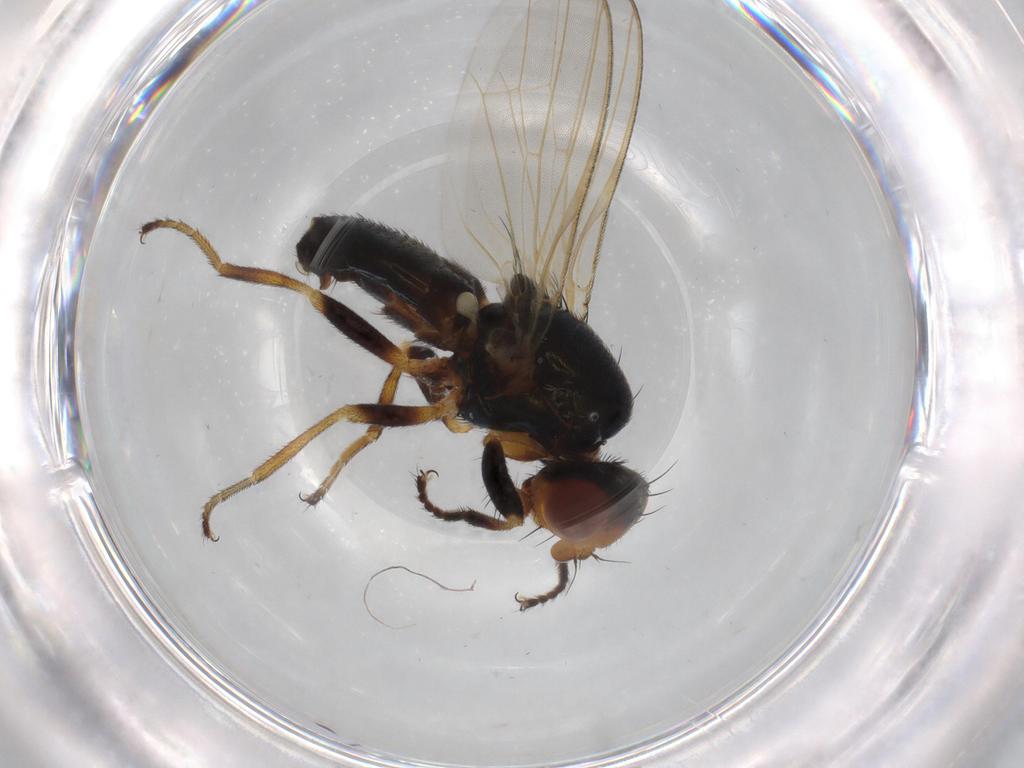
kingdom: Animalia
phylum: Arthropoda
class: Insecta
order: Diptera
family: Piophilidae
